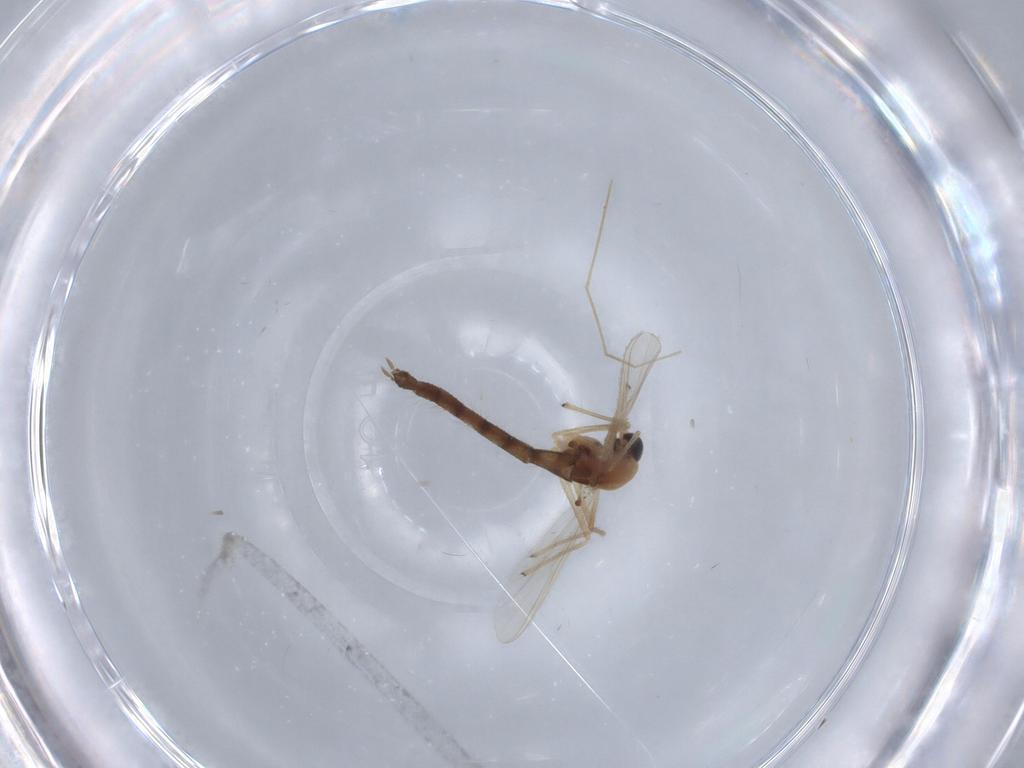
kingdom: Animalia
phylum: Arthropoda
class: Insecta
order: Diptera
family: Chironomidae
